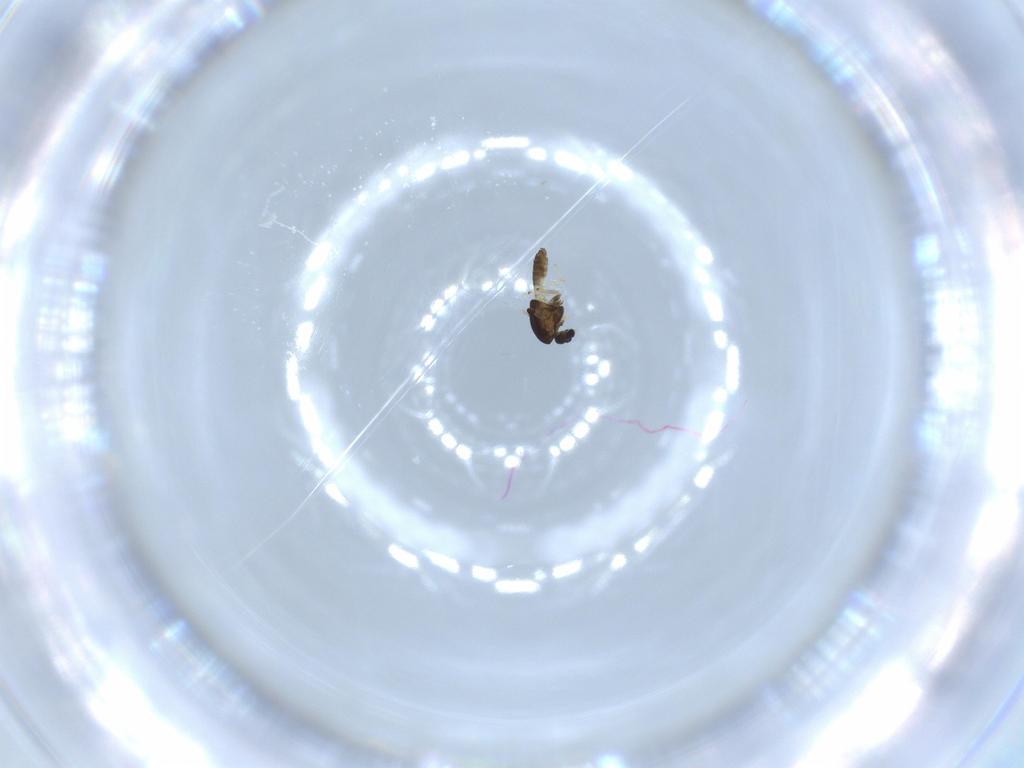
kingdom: Animalia
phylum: Arthropoda
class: Insecta
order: Diptera
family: Chironomidae
